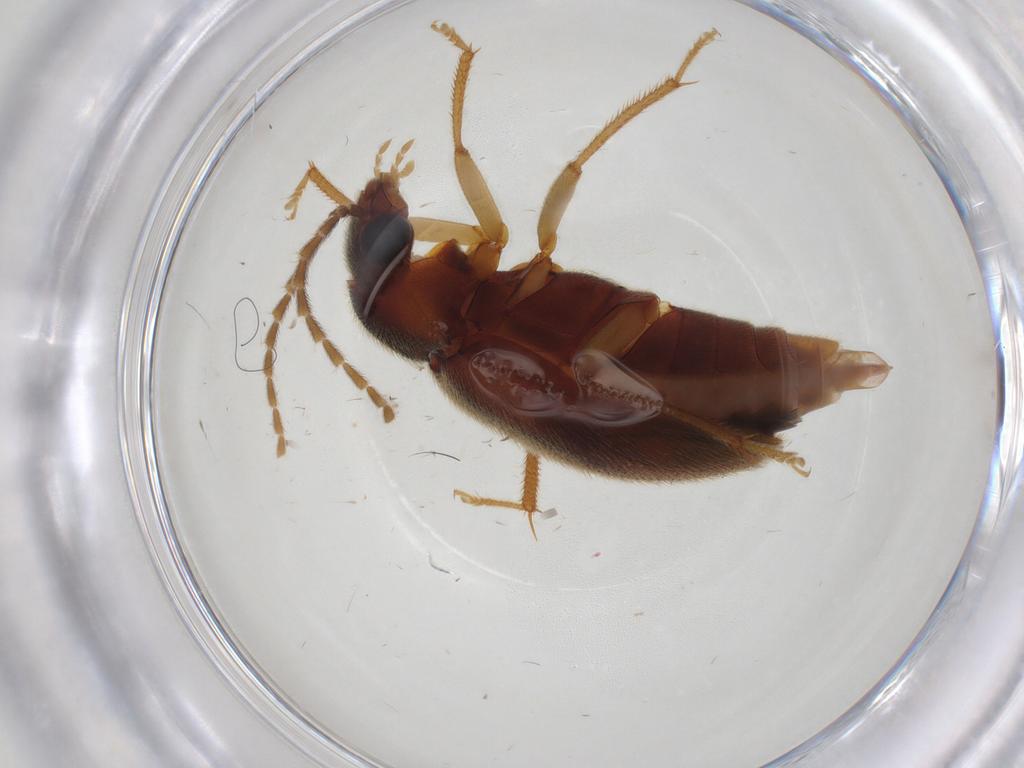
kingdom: Animalia
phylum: Arthropoda
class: Insecta
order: Coleoptera
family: Ptilodactylidae
